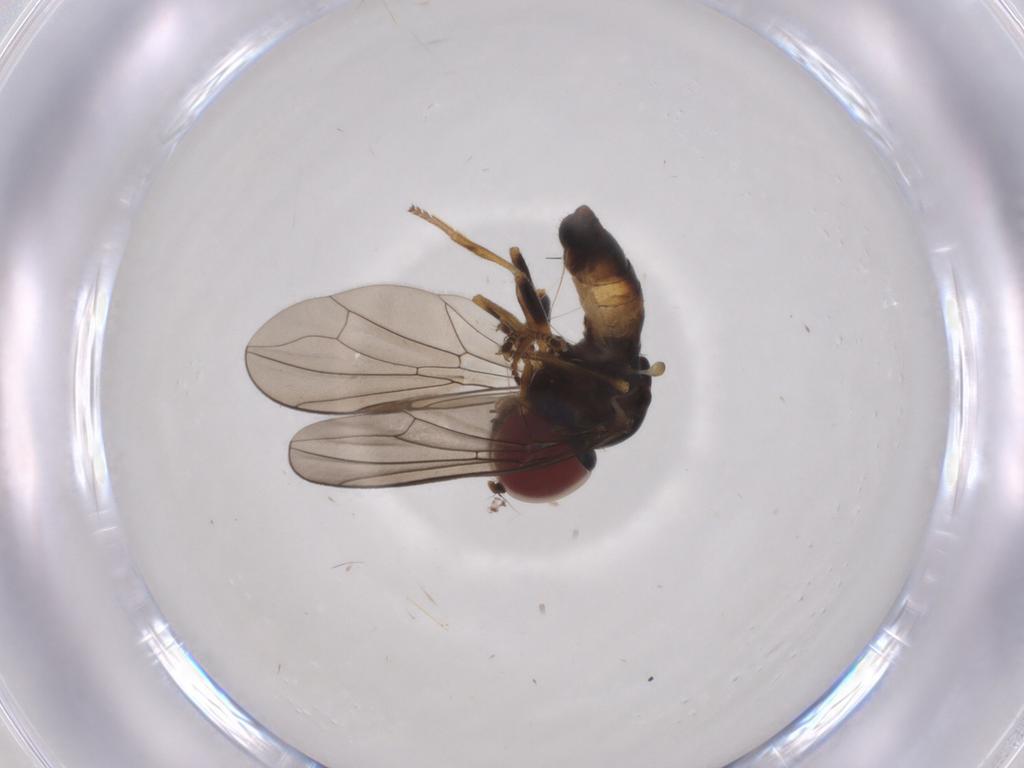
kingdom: Animalia
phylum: Arthropoda
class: Insecta
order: Diptera
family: Pipunculidae
